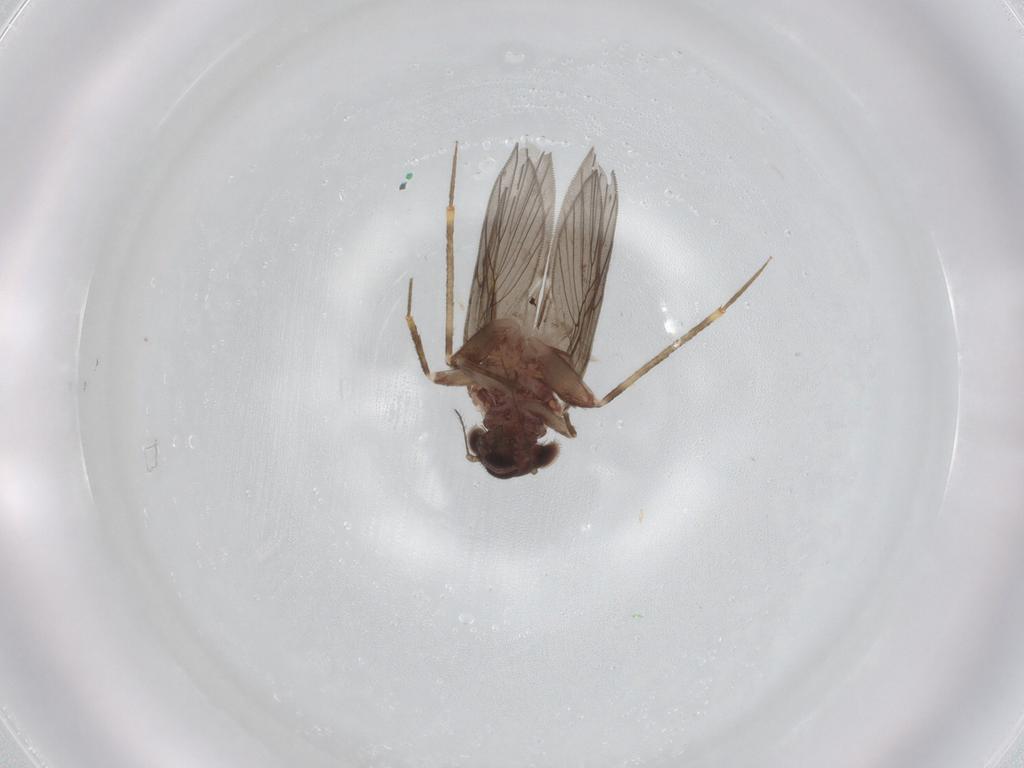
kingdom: Animalia
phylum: Arthropoda
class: Insecta
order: Psocodea
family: Lepidopsocidae
